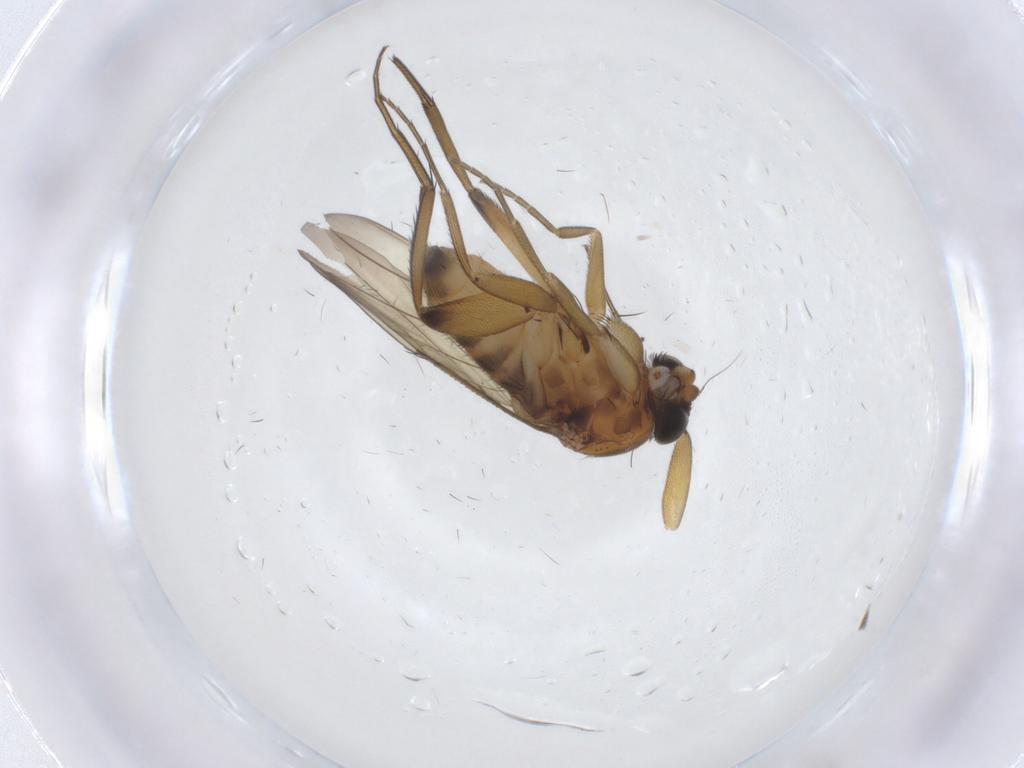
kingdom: Animalia
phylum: Arthropoda
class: Insecta
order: Diptera
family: Phoridae
